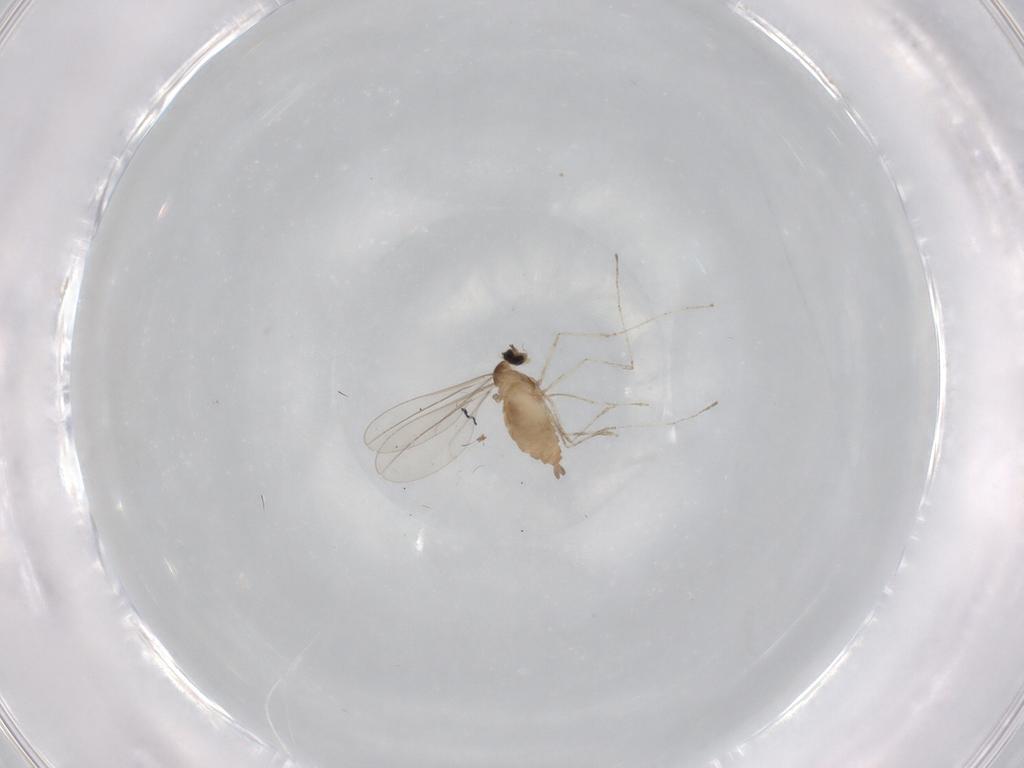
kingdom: Animalia
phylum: Arthropoda
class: Insecta
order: Diptera
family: Cecidomyiidae
